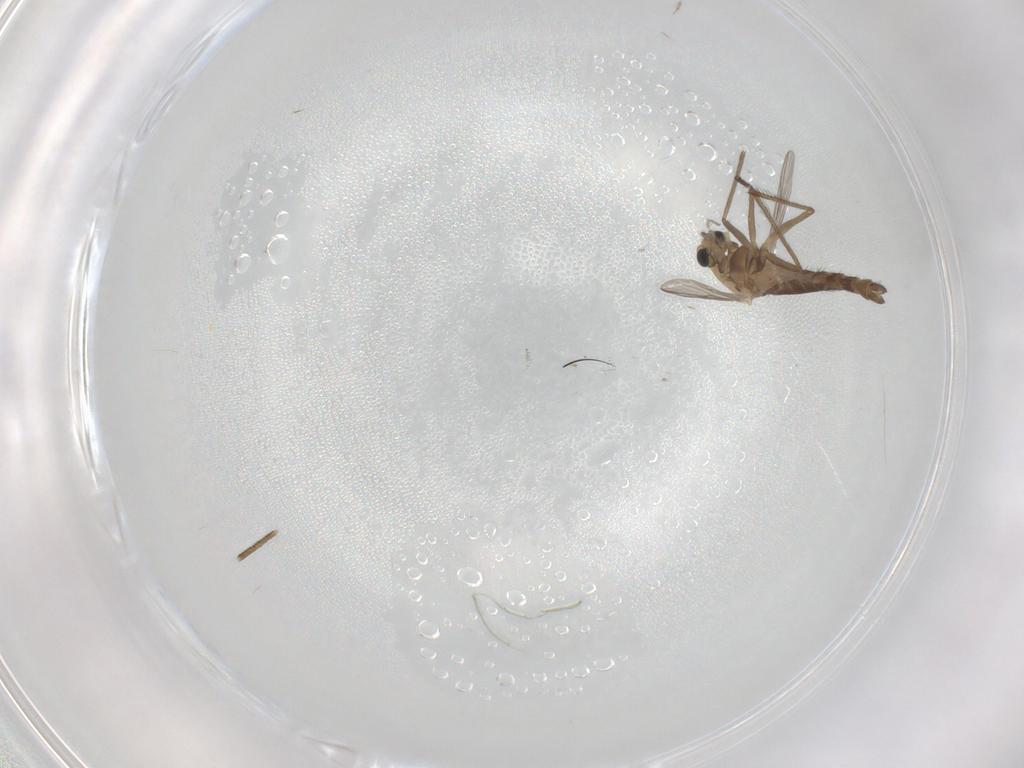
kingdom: Animalia
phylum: Arthropoda
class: Insecta
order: Diptera
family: Chironomidae
